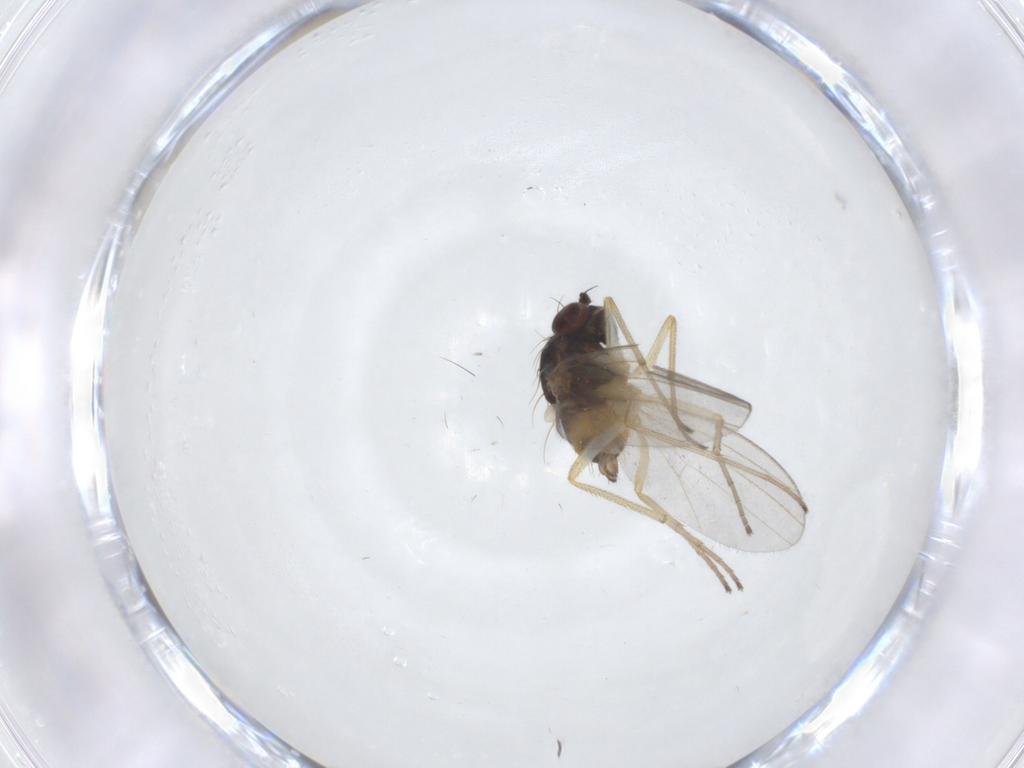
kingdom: Animalia
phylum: Arthropoda
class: Insecta
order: Diptera
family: Dolichopodidae
